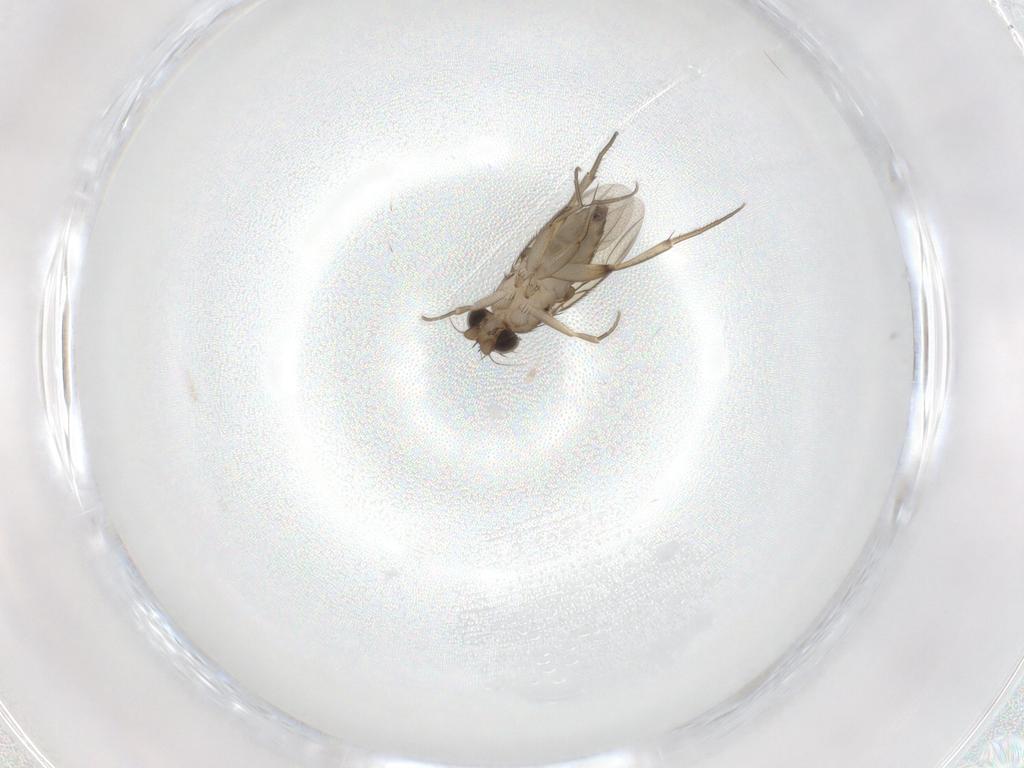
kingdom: Animalia
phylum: Arthropoda
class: Insecta
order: Diptera
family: Phoridae
